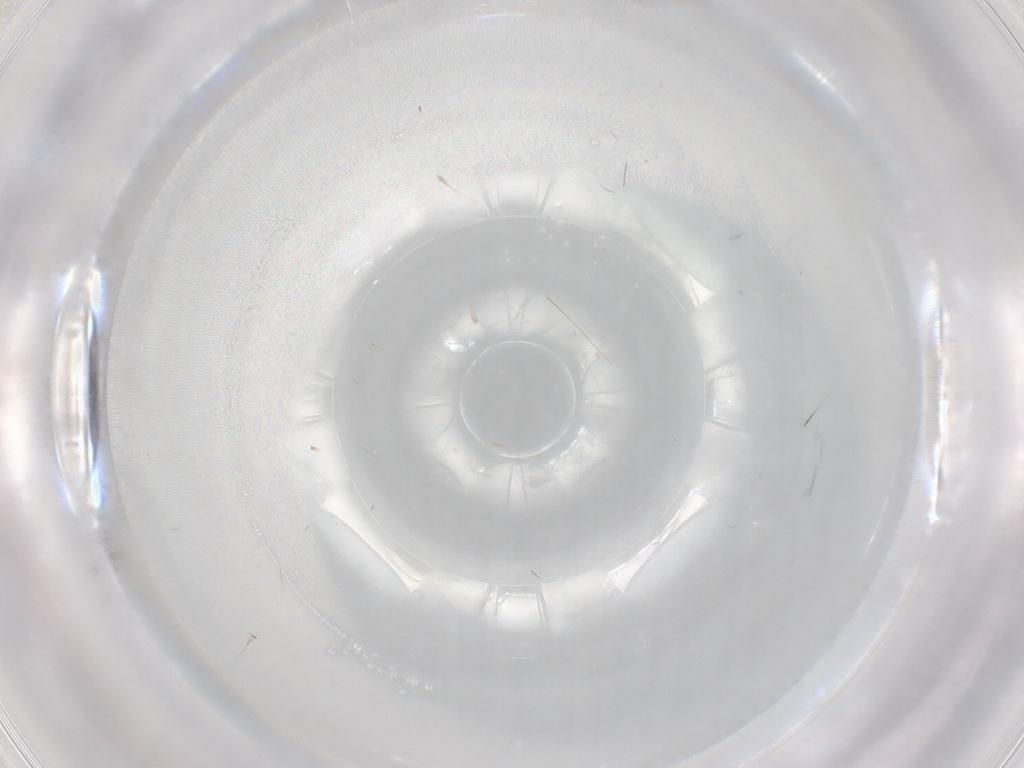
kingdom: Animalia
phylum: Arthropoda
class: Insecta
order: Diptera
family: Cecidomyiidae
